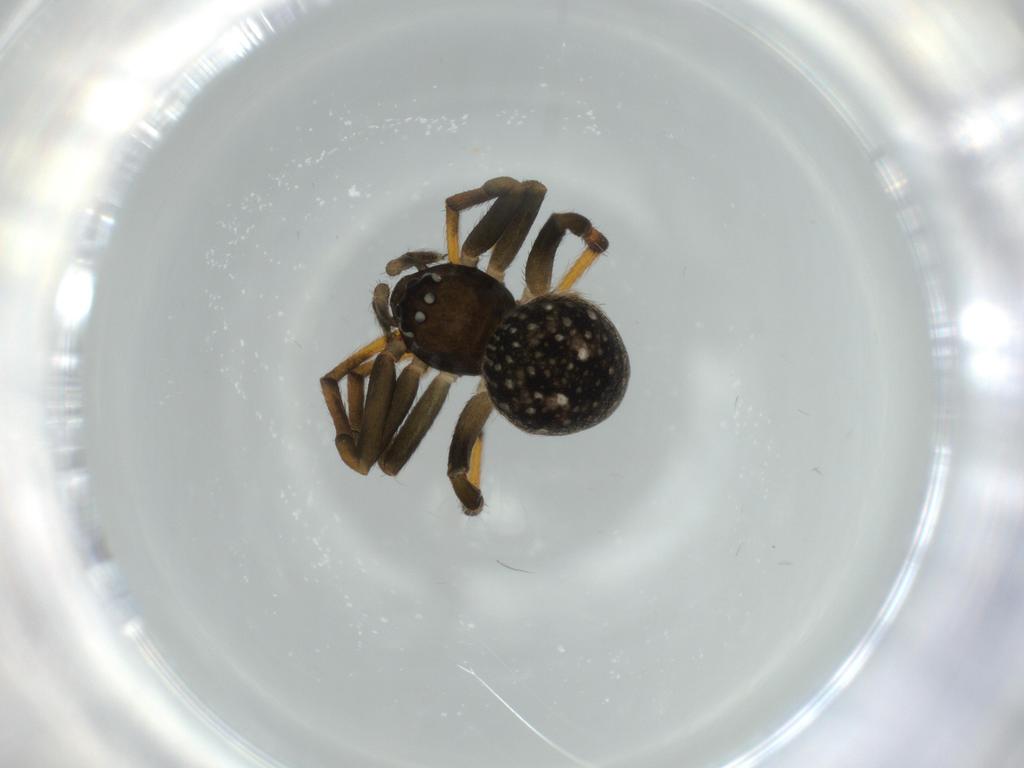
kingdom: Animalia
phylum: Arthropoda
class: Arachnida
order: Araneae
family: Theridiidae
